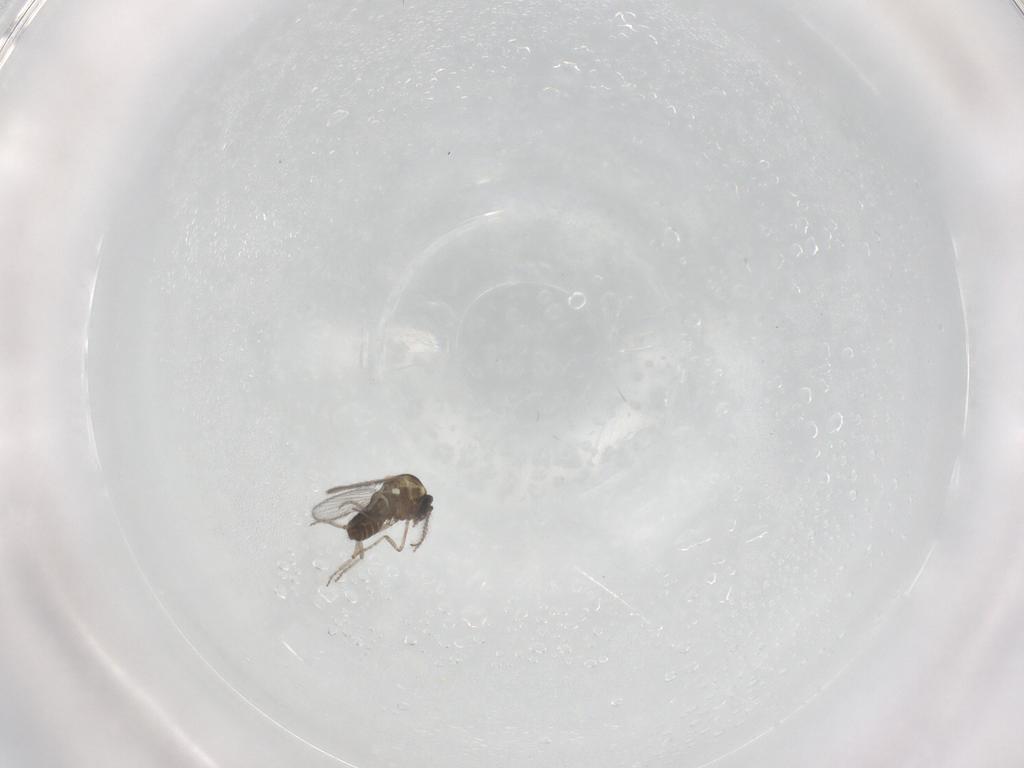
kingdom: Animalia
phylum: Arthropoda
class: Insecta
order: Diptera
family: Ceratopogonidae
